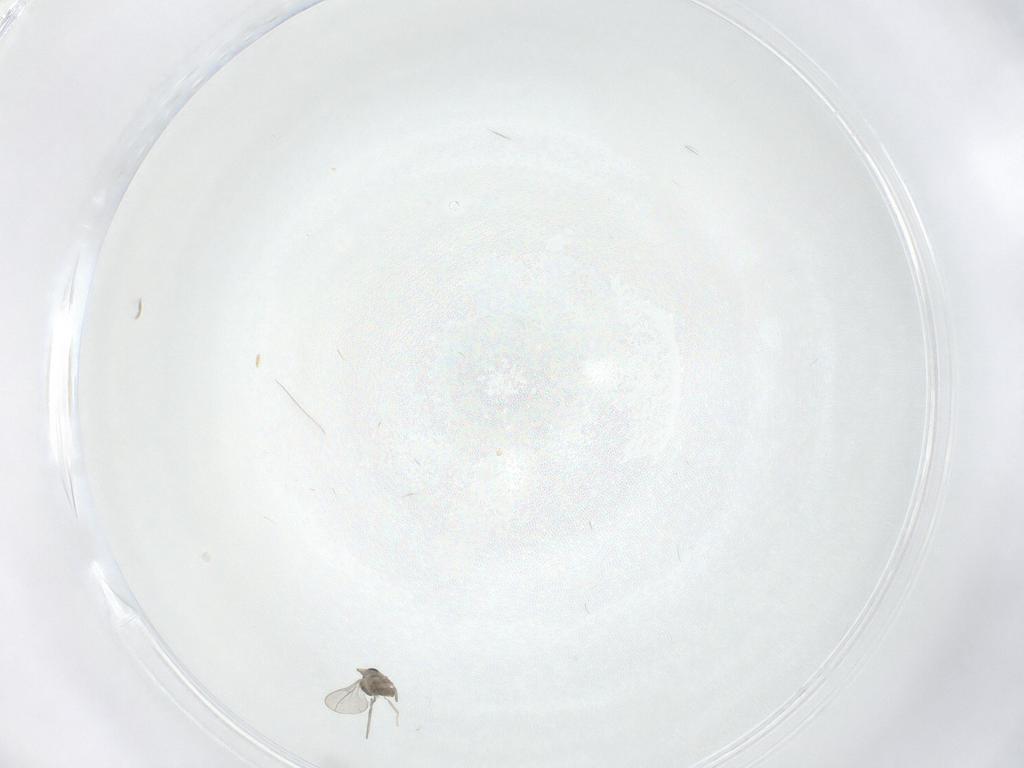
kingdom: Animalia
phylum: Arthropoda
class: Insecta
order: Diptera
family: Cecidomyiidae
